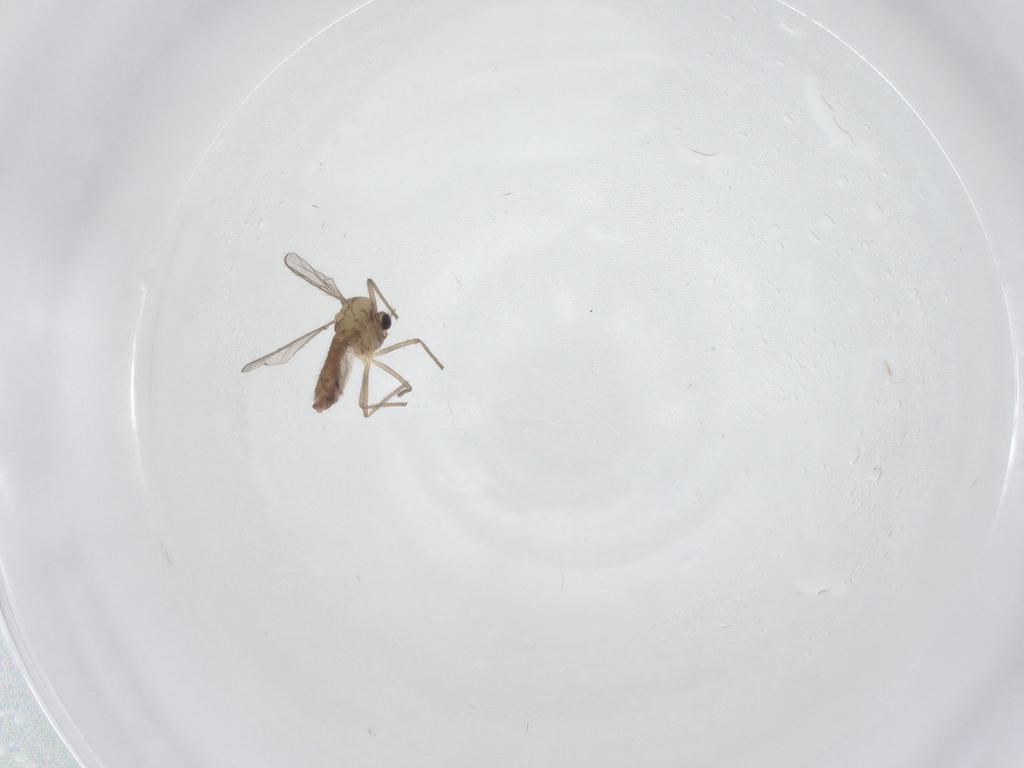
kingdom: Animalia
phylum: Arthropoda
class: Insecta
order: Diptera
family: Chironomidae
